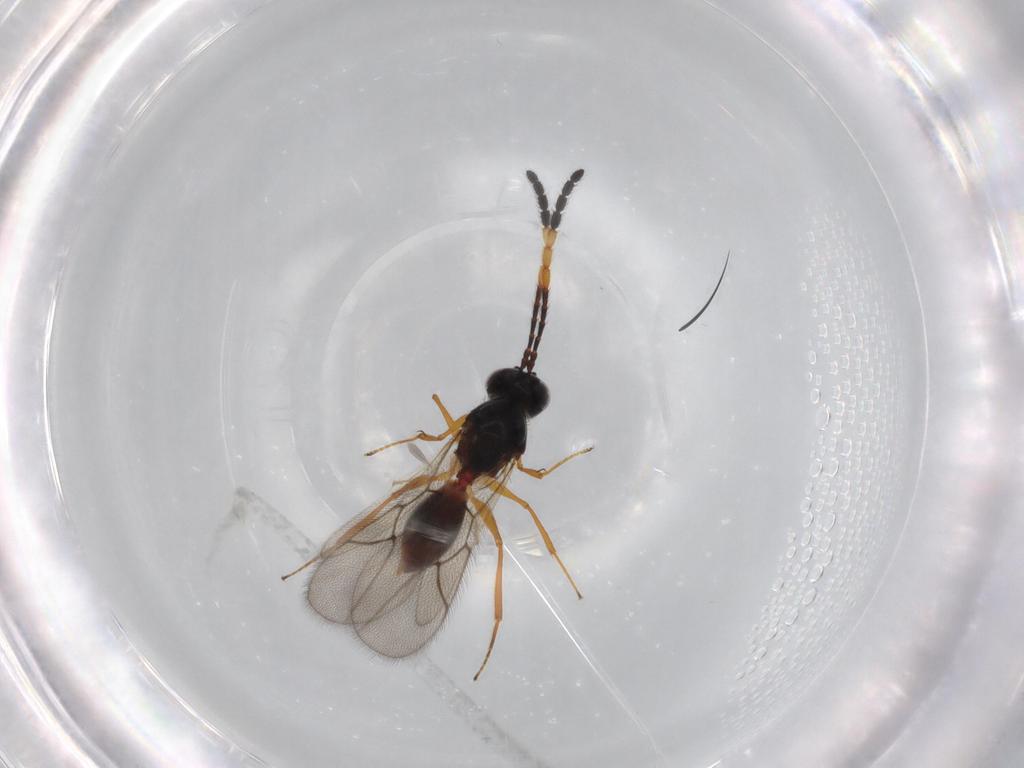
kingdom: Animalia
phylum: Arthropoda
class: Insecta
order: Hymenoptera
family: Figitidae
